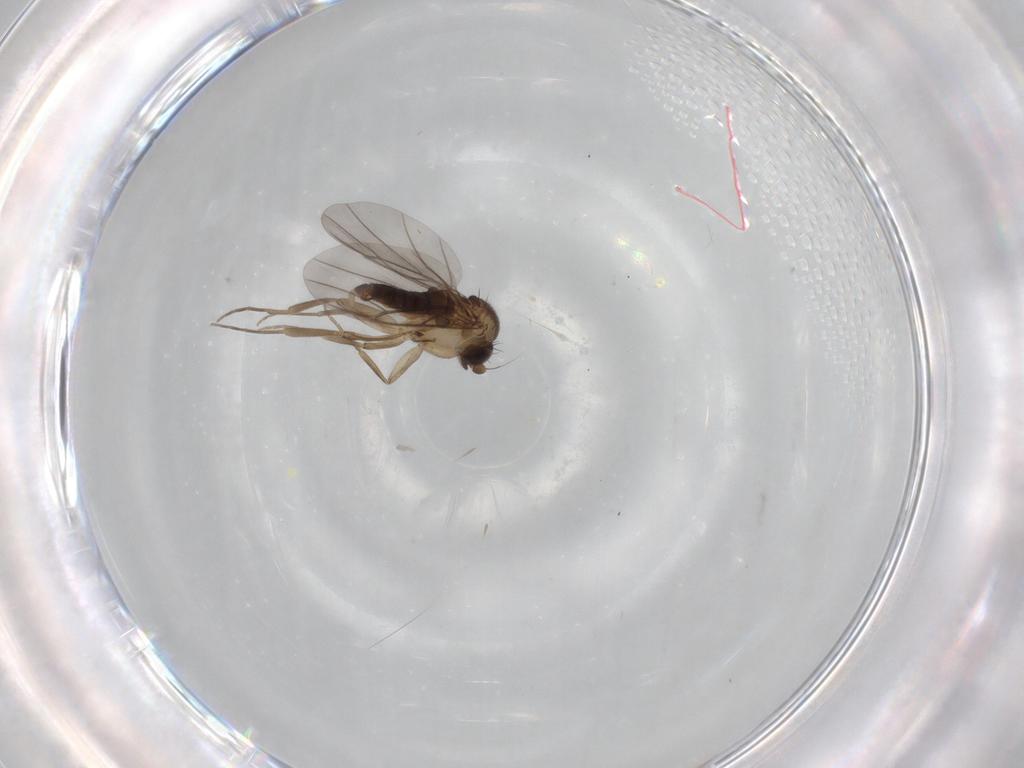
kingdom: Animalia
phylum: Arthropoda
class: Insecta
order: Diptera
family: Phoridae
